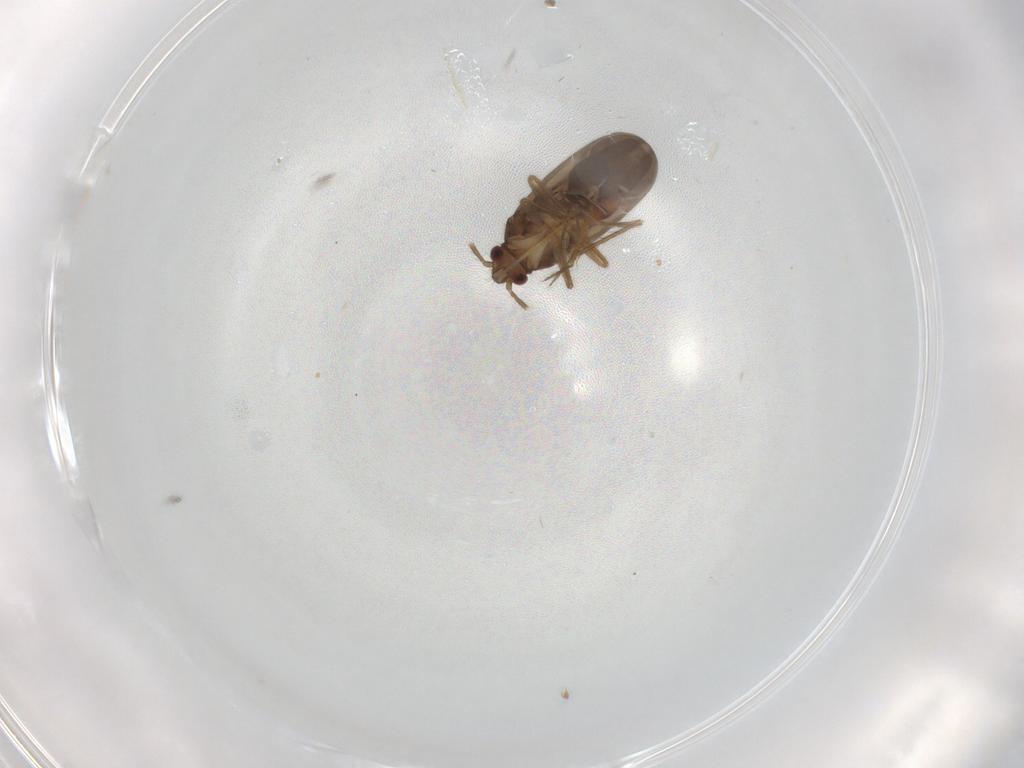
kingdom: Animalia
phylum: Arthropoda
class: Insecta
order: Hemiptera
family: Ceratocombidae
